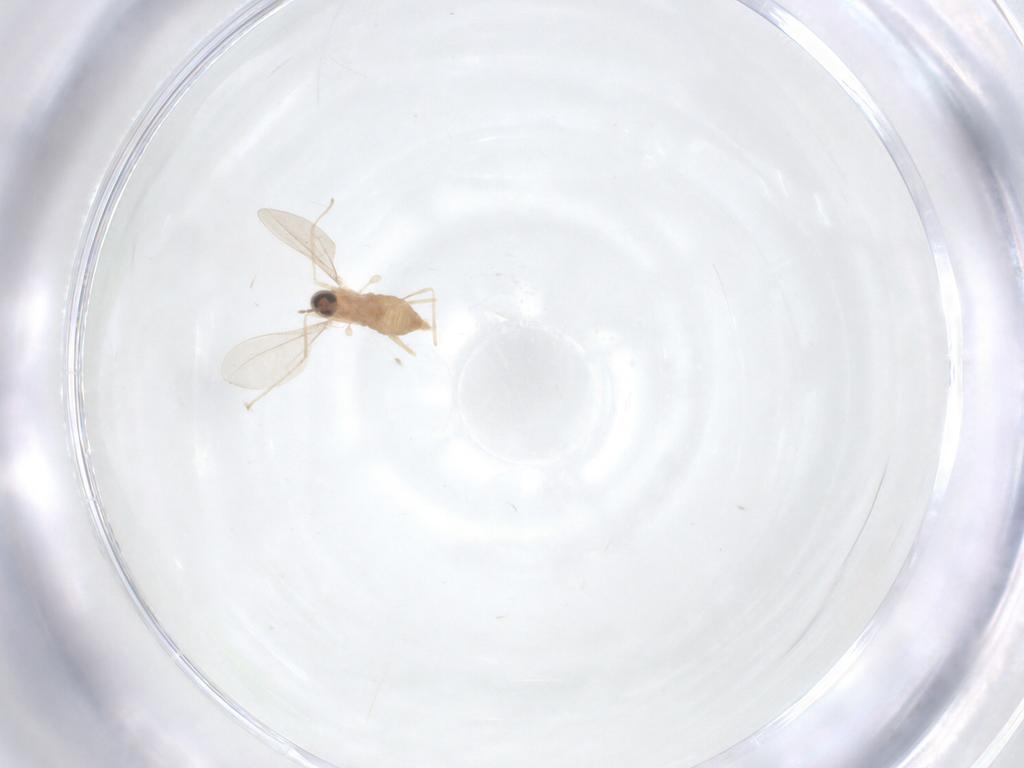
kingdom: Animalia
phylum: Arthropoda
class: Insecta
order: Diptera
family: Cecidomyiidae
